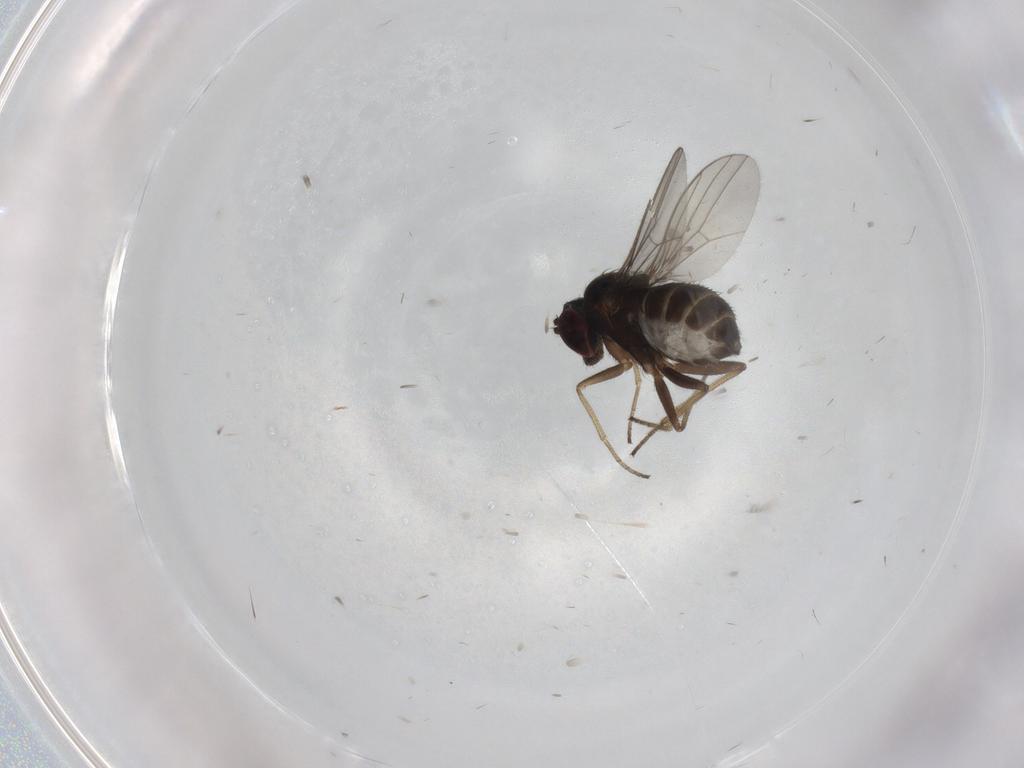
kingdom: Animalia
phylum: Arthropoda
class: Insecta
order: Diptera
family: Dolichopodidae
